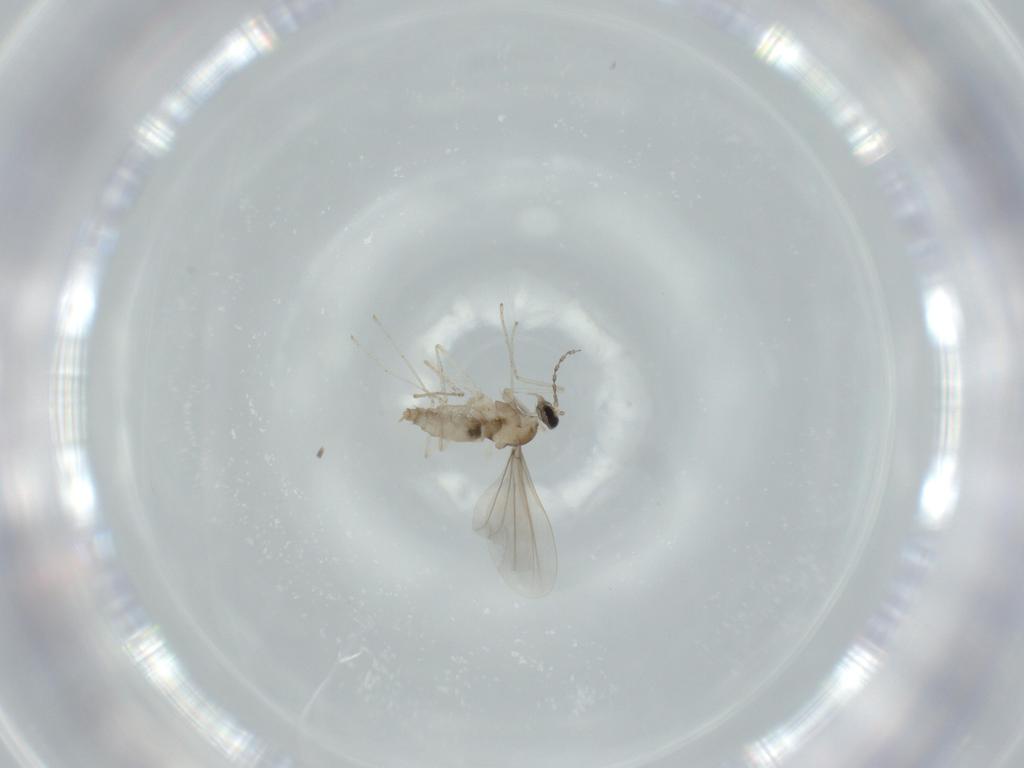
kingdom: Animalia
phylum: Arthropoda
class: Insecta
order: Diptera
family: Cecidomyiidae
